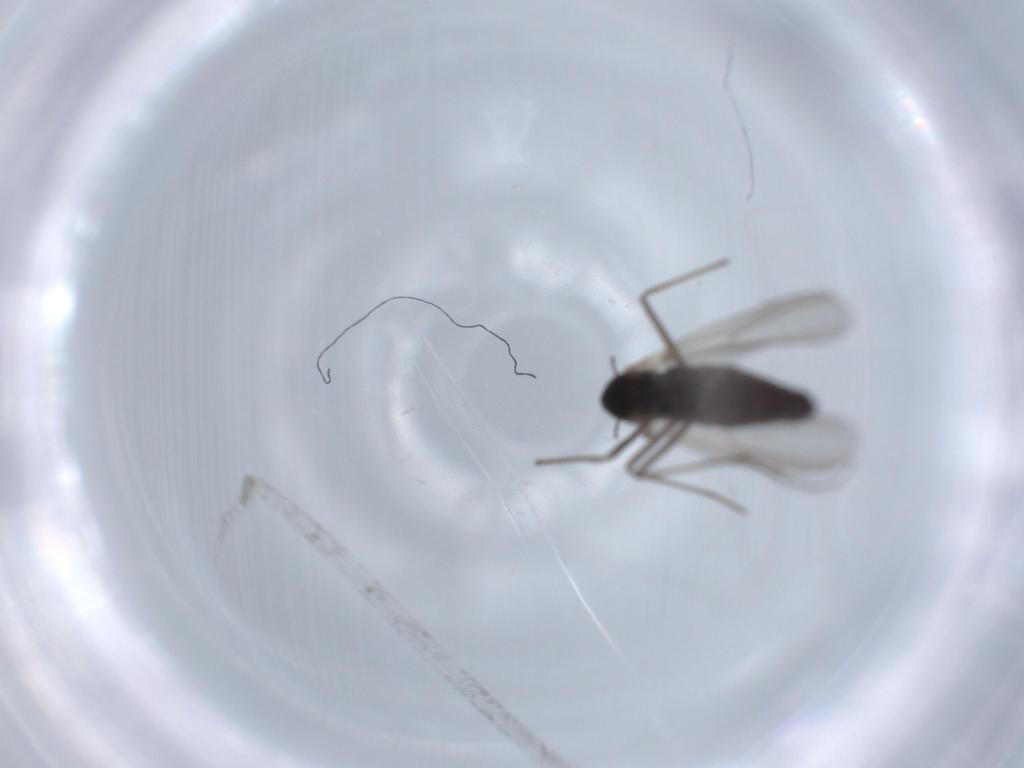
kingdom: Animalia
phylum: Arthropoda
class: Insecta
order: Diptera
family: Chironomidae
